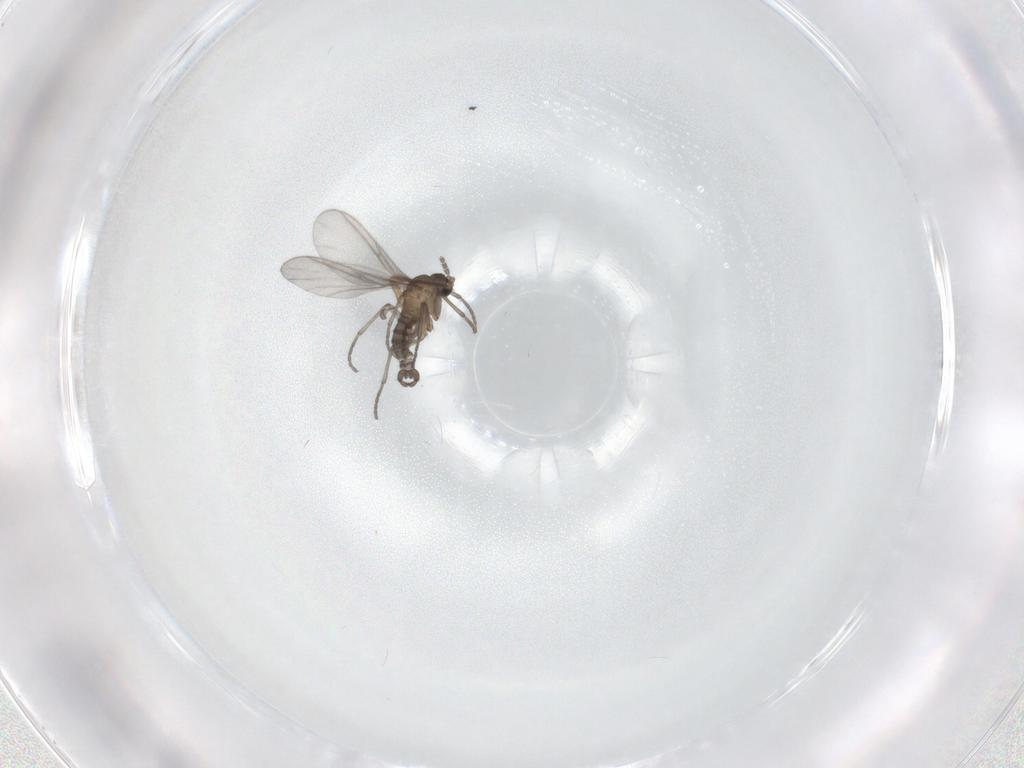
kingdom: Animalia
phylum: Arthropoda
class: Insecta
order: Diptera
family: Sciaridae
